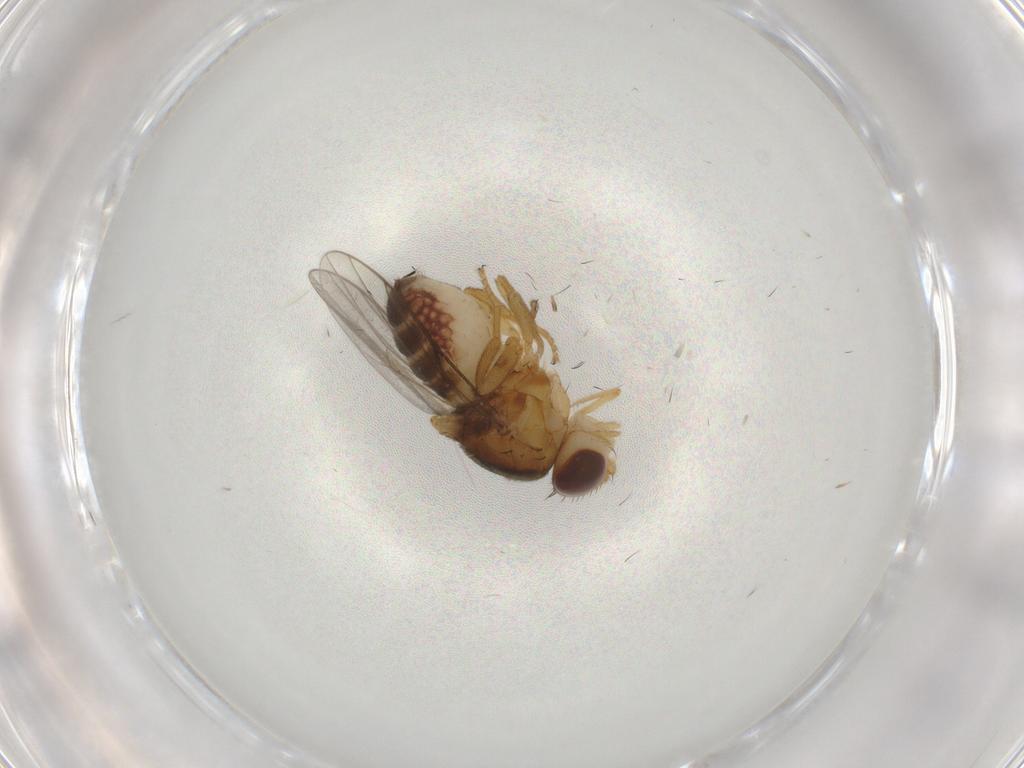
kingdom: Animalia
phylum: Arthropoda
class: Insecta
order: Diptera
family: Chloropidae
